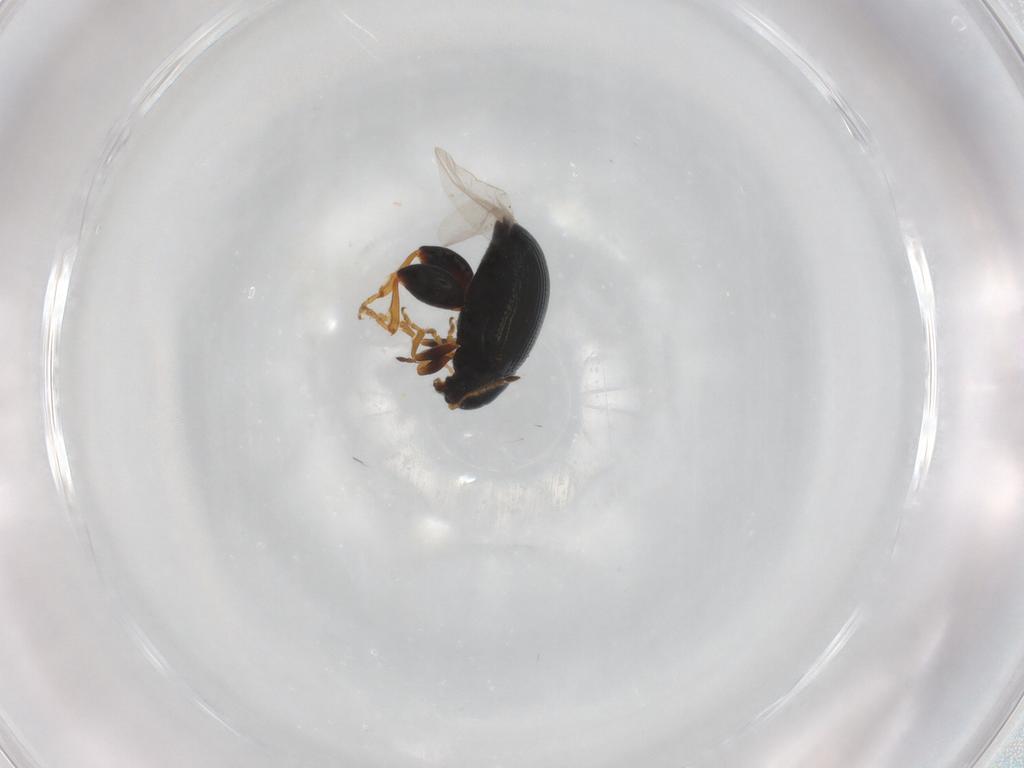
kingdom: Animalia
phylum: Arthropoda
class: Insecta
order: Coleoptera
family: Chrysomelidae
